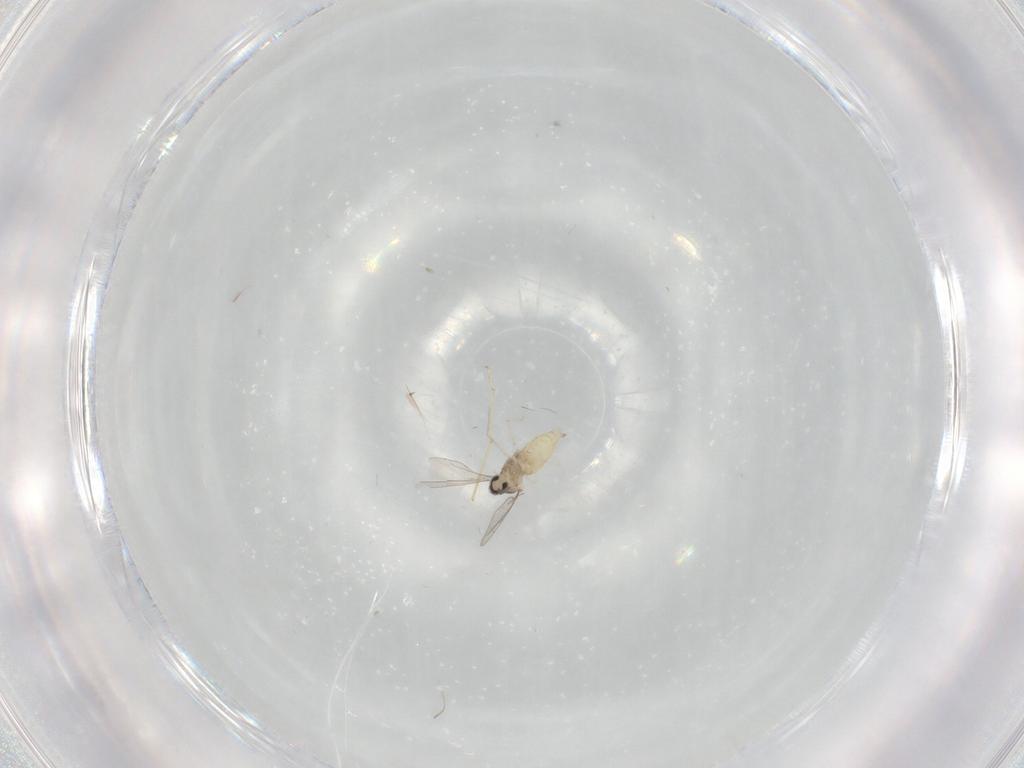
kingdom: Animalia
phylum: Arthropoda
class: Insecta
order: Diptera
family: Cecidomyiidae
